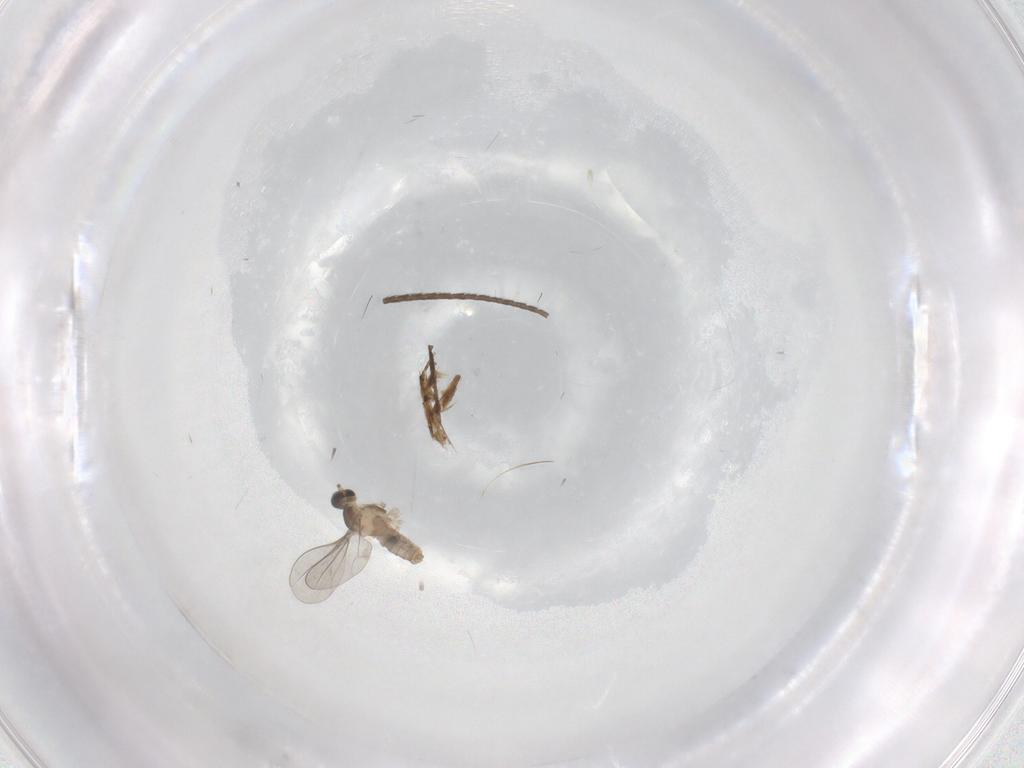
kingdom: Animalia
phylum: Arthropoda
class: Insecta
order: Diptera
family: Cecidomyiidae
